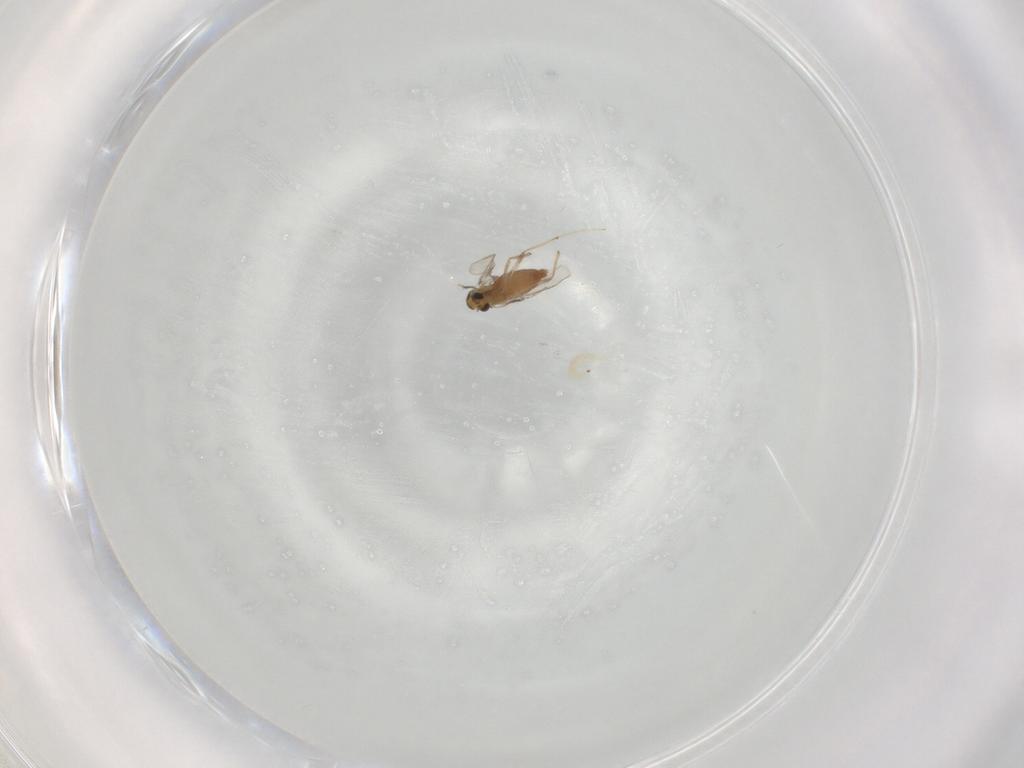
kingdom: Animalia
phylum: Arthropoda
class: Insecta
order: Diptera
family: Chironomidae
